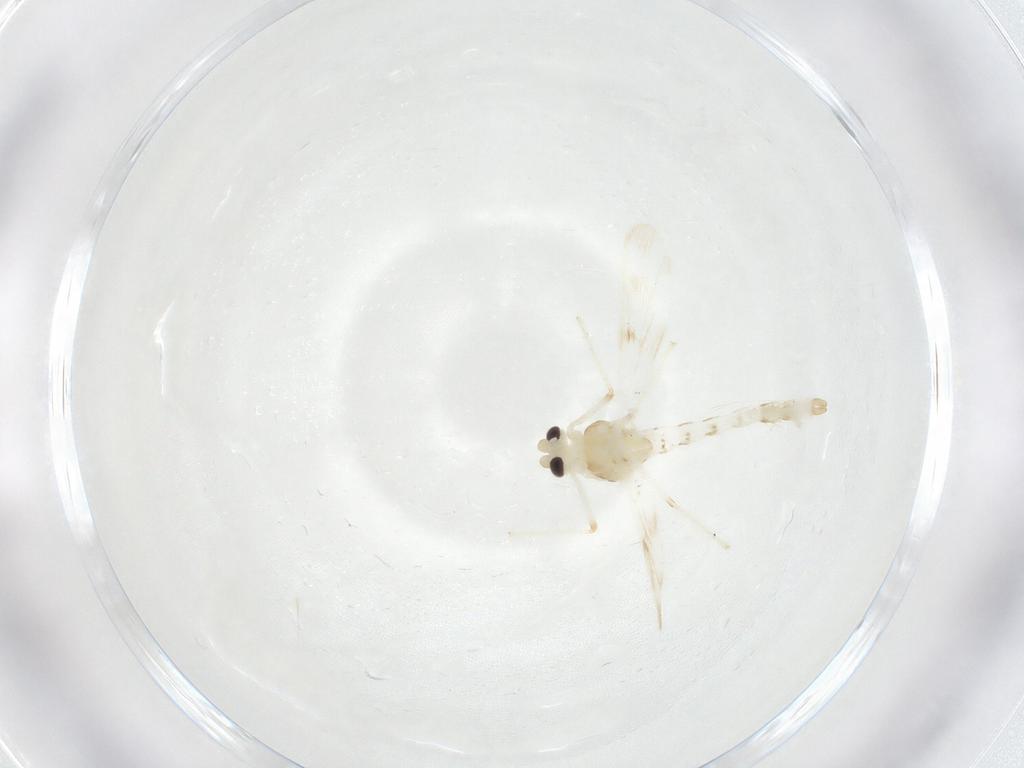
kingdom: Animalia
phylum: Arthropoda
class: Insecta
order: Diptera
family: Chironomidae
